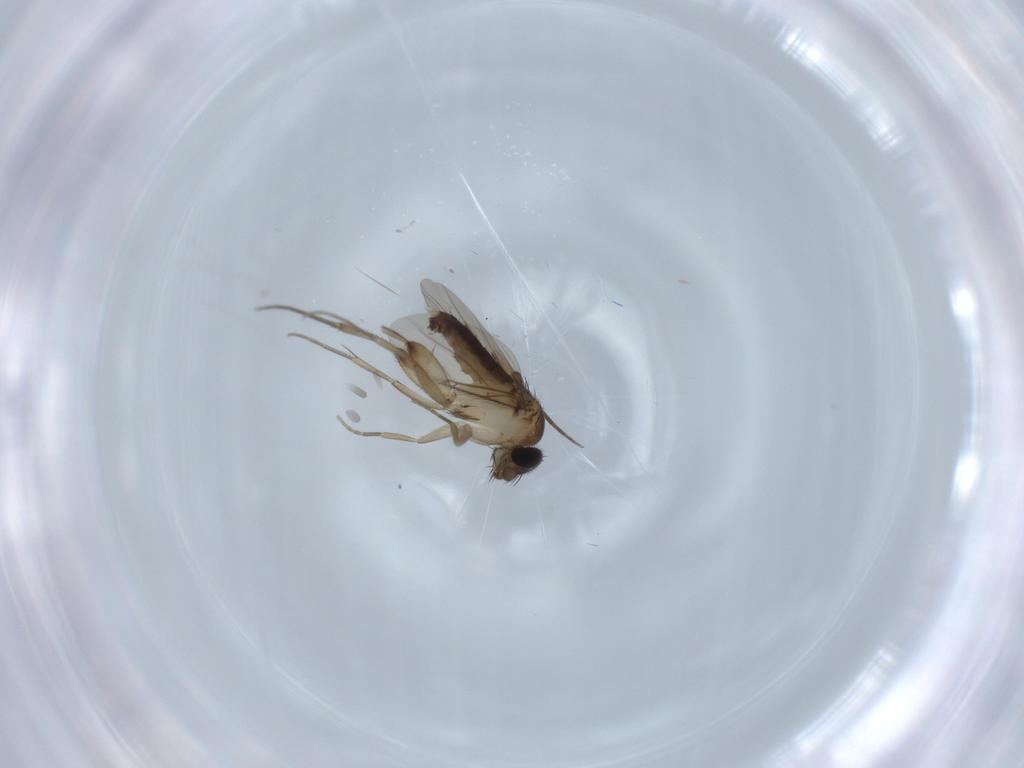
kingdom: Animalia
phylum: Arthropoda
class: Insecta
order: Diptera
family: Phoridae
